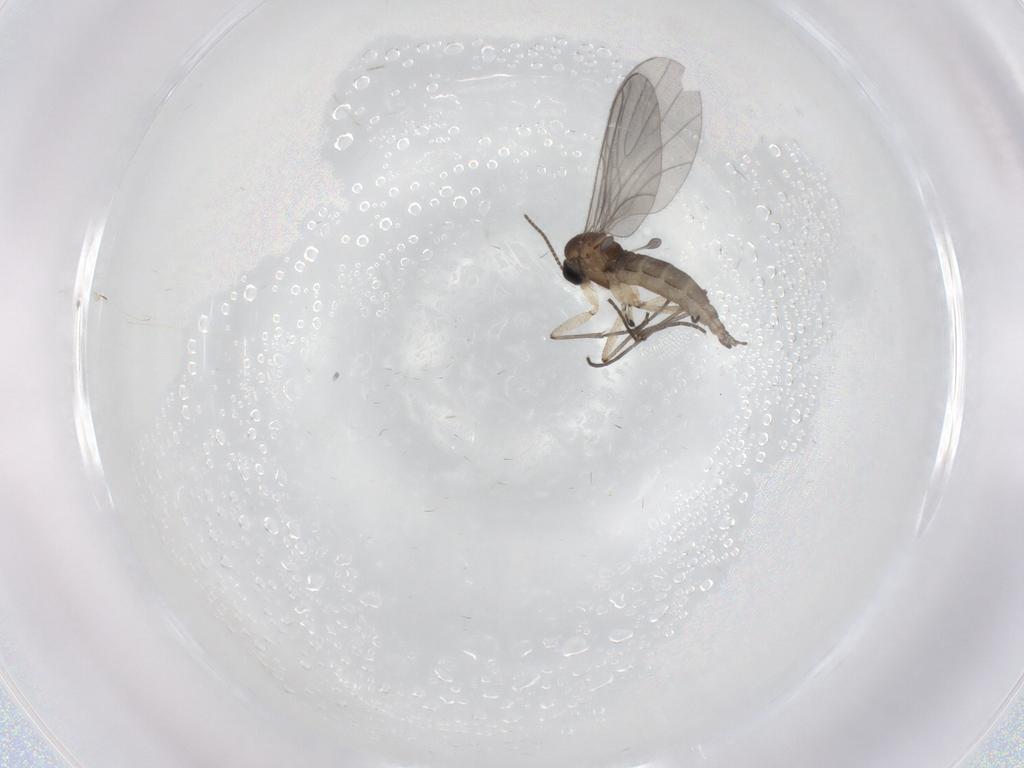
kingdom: Animalia
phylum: Arthropoda
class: Insecta
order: Diptera
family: Sciaridae
